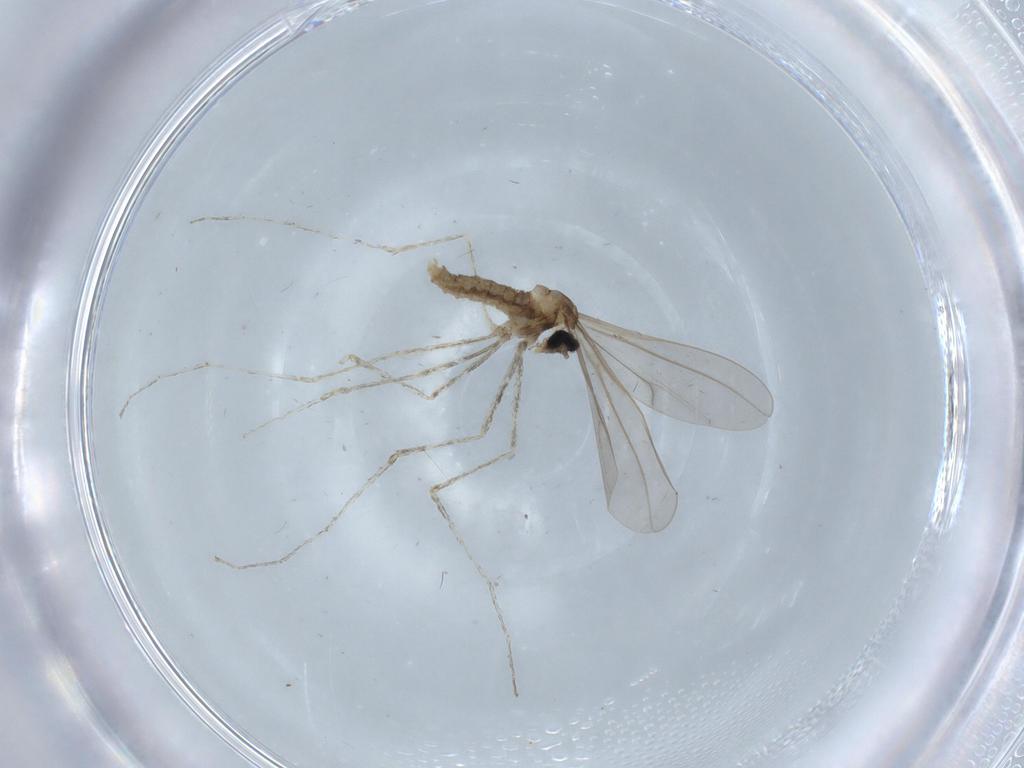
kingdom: Animalia
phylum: Arthropoda
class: Insecta
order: Diptera
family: Cecidomyiidae
